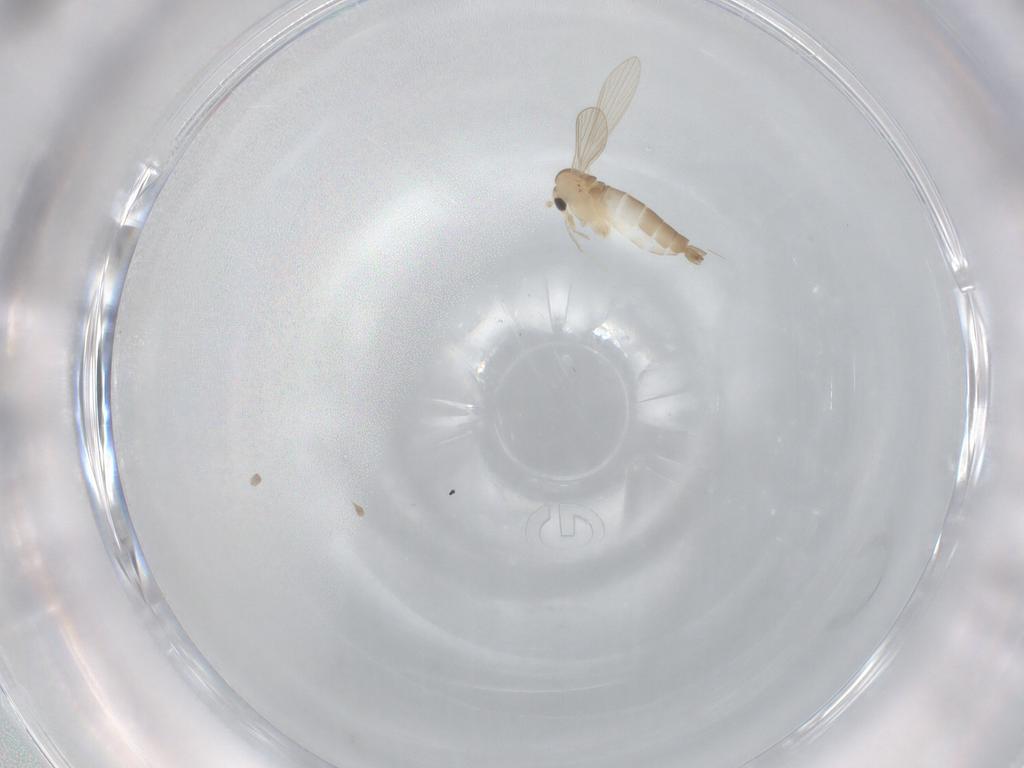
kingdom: Animalia
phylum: Arthropoda
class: Insecta
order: Diptera
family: Psychodidae
